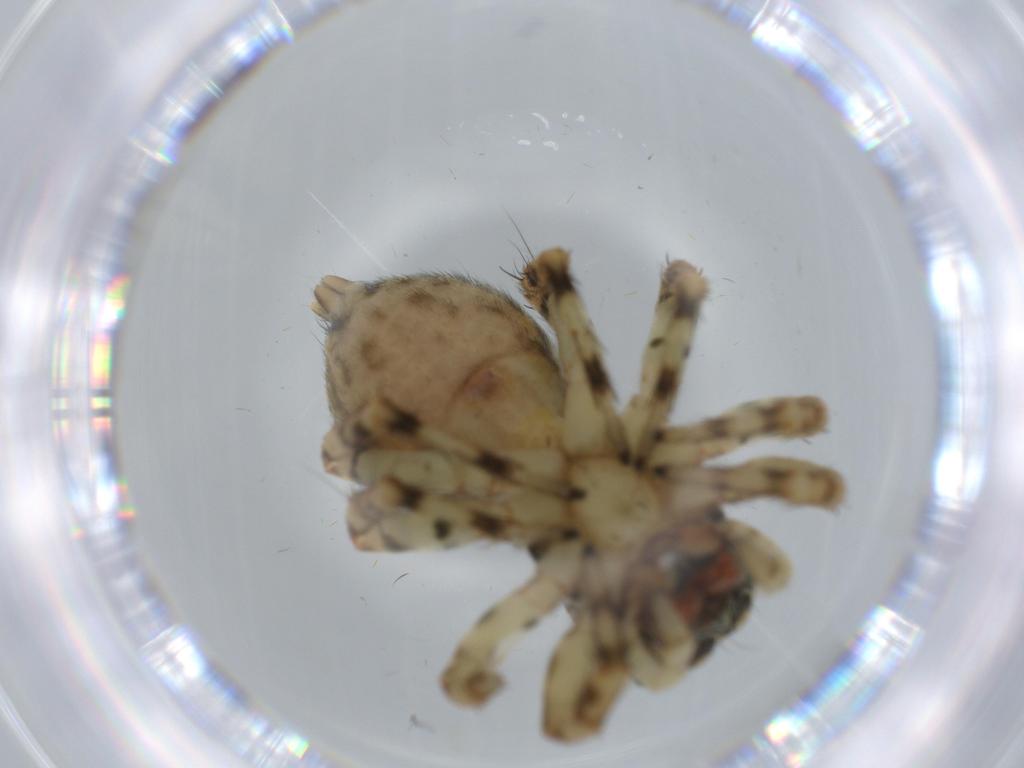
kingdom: Animalia
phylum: Arthropoda
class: Arachnida
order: Araneae
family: Salticidae
